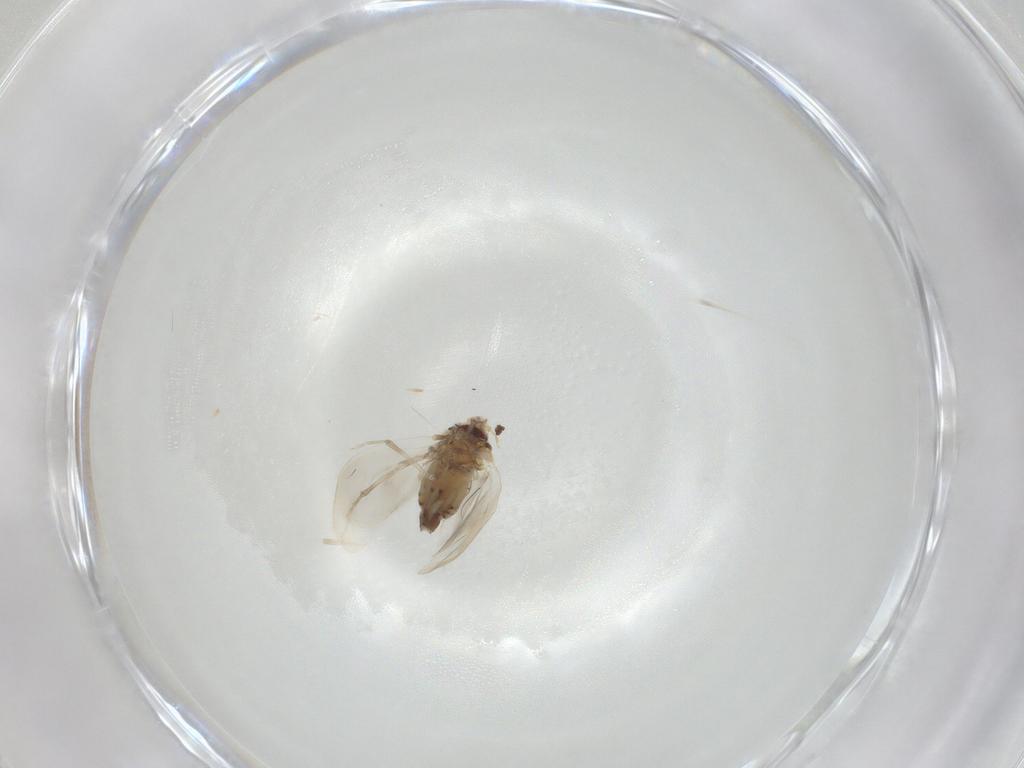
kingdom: Animalia
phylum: Arthropoda
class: Insecta
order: Hemiptera
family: Aleyrodidae
